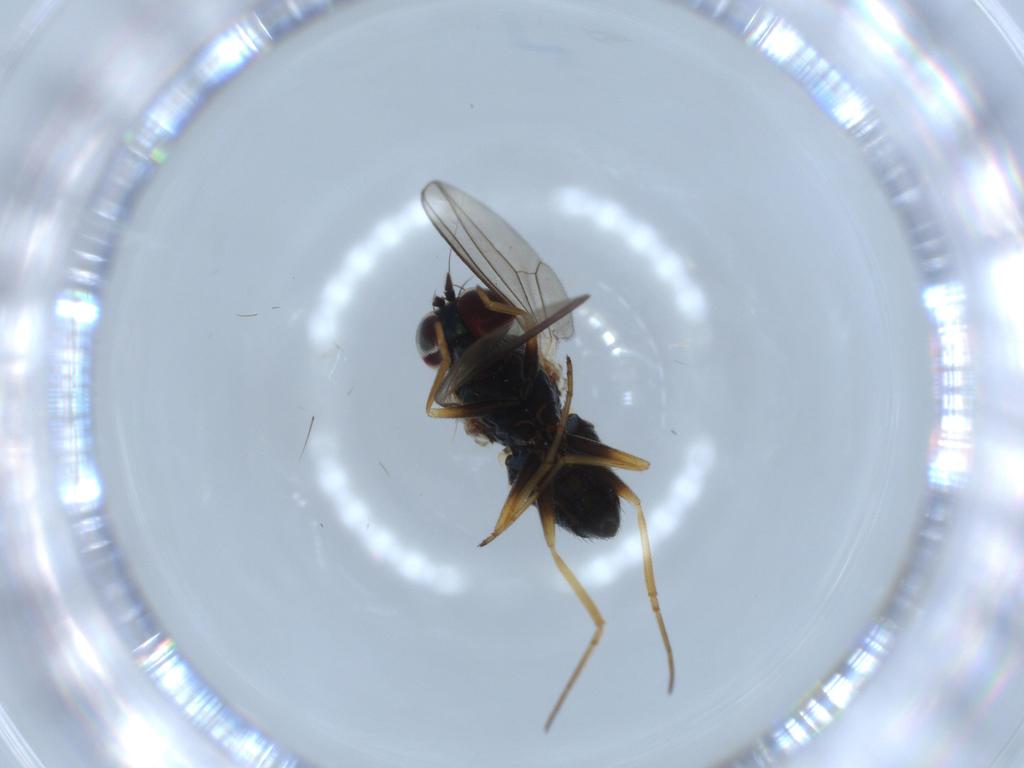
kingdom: Animalia
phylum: Arthropoda
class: Insecta
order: Diptera
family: Dolichopodidae
